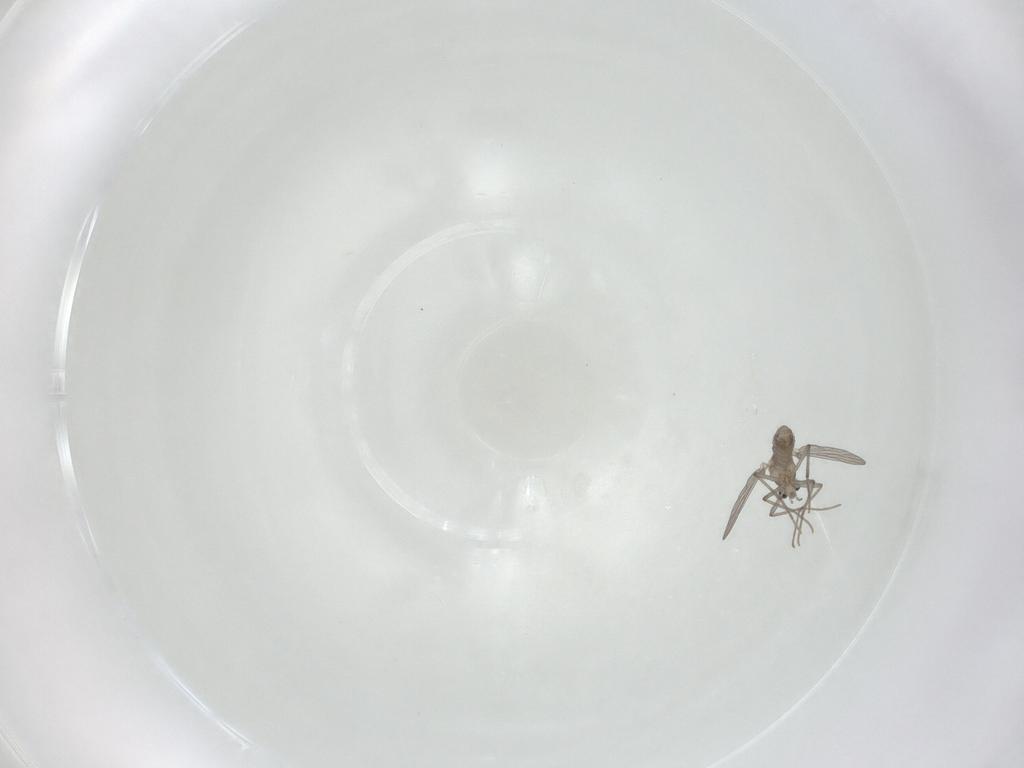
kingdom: Animalia
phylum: Arthropoda
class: Insecta
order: Diptera
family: Chironomidae
